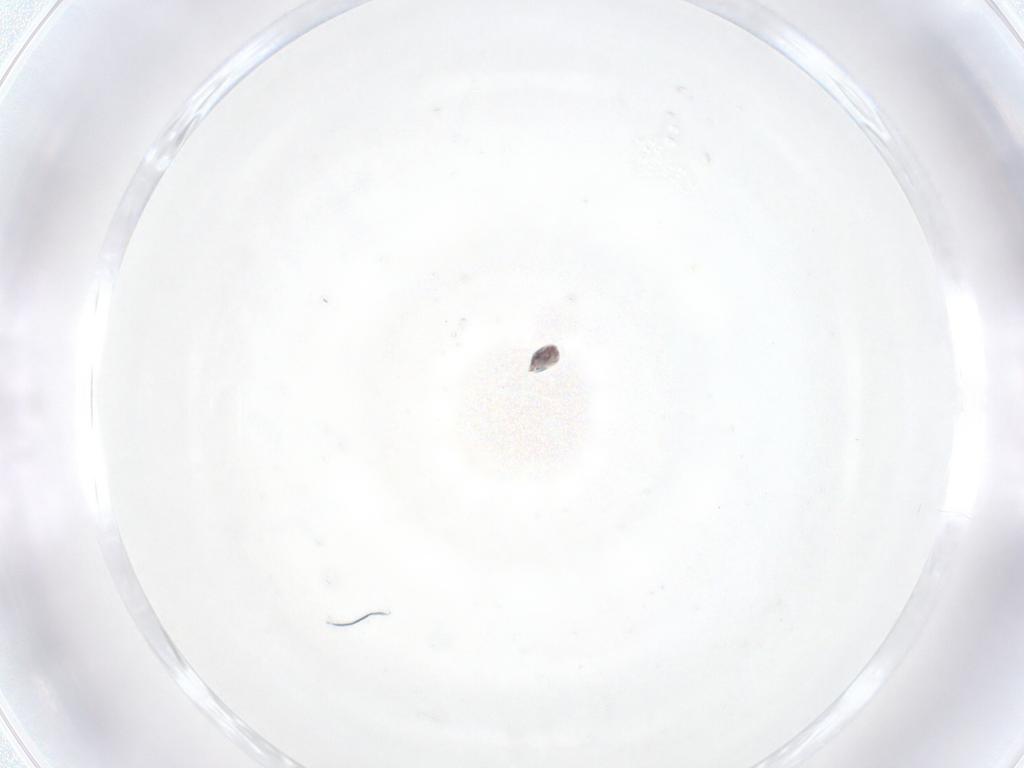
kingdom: Animalia
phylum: Arthropoda
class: Arachnida
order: Trombidiformes
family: Arrenuridae
